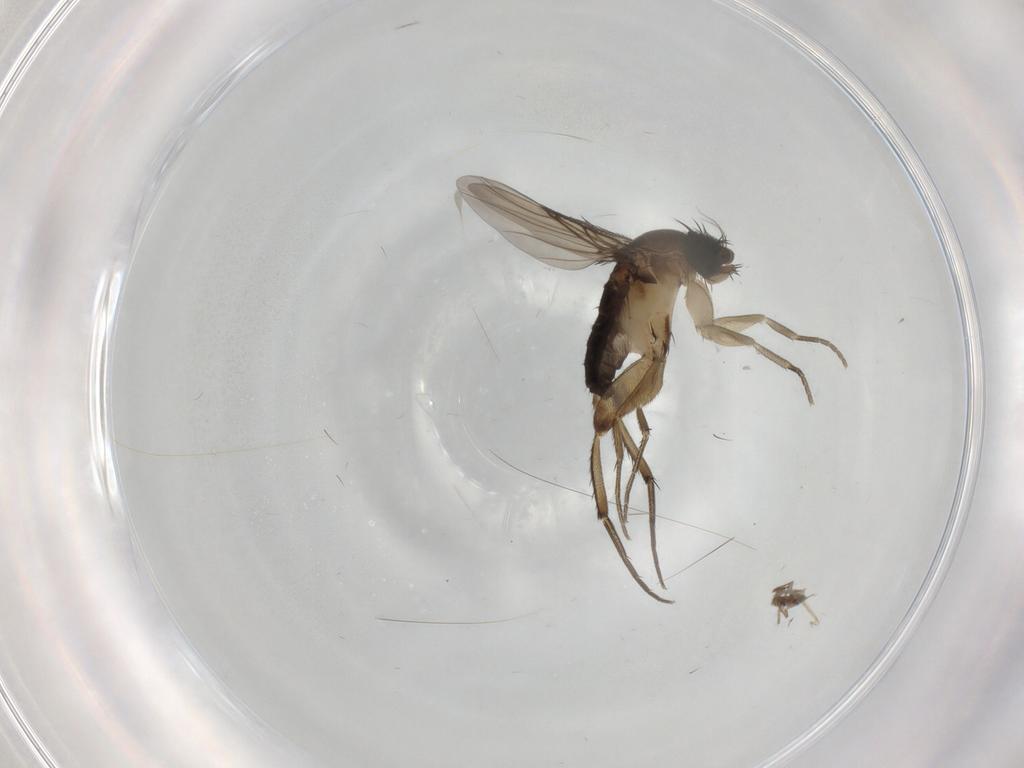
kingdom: Animalia
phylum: Arthropoda
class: Insecta
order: Diptera
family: Phoridae
